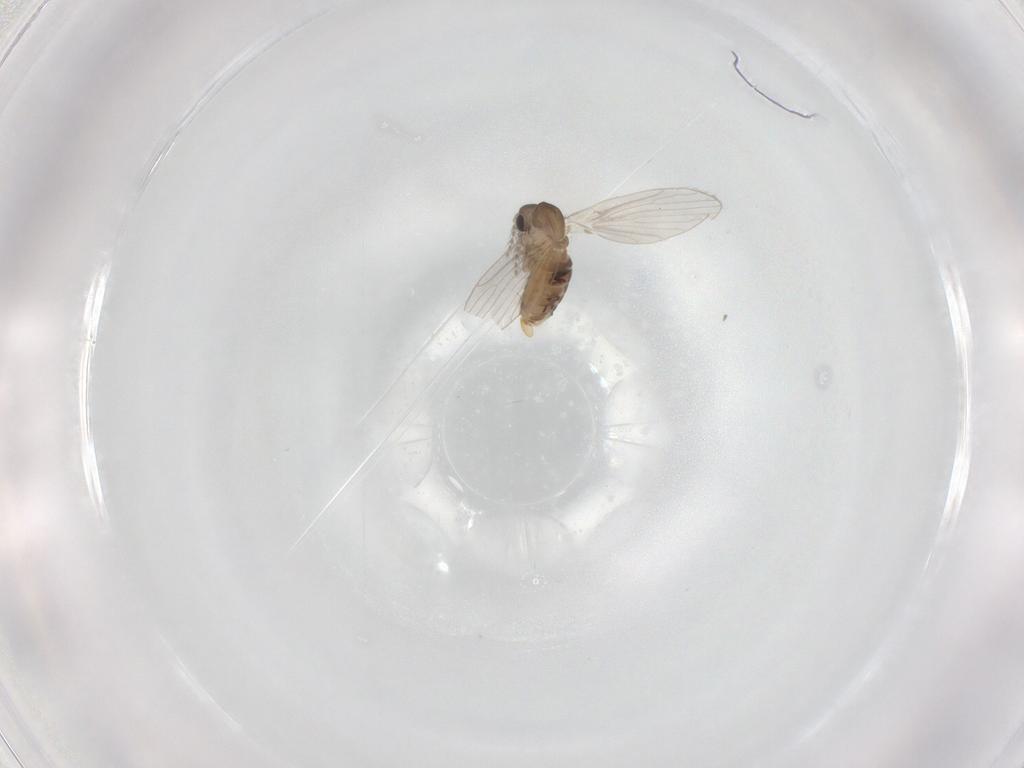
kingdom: Animalia
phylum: Arthropoda
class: Insecta
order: Diptera
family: Psychodidae
